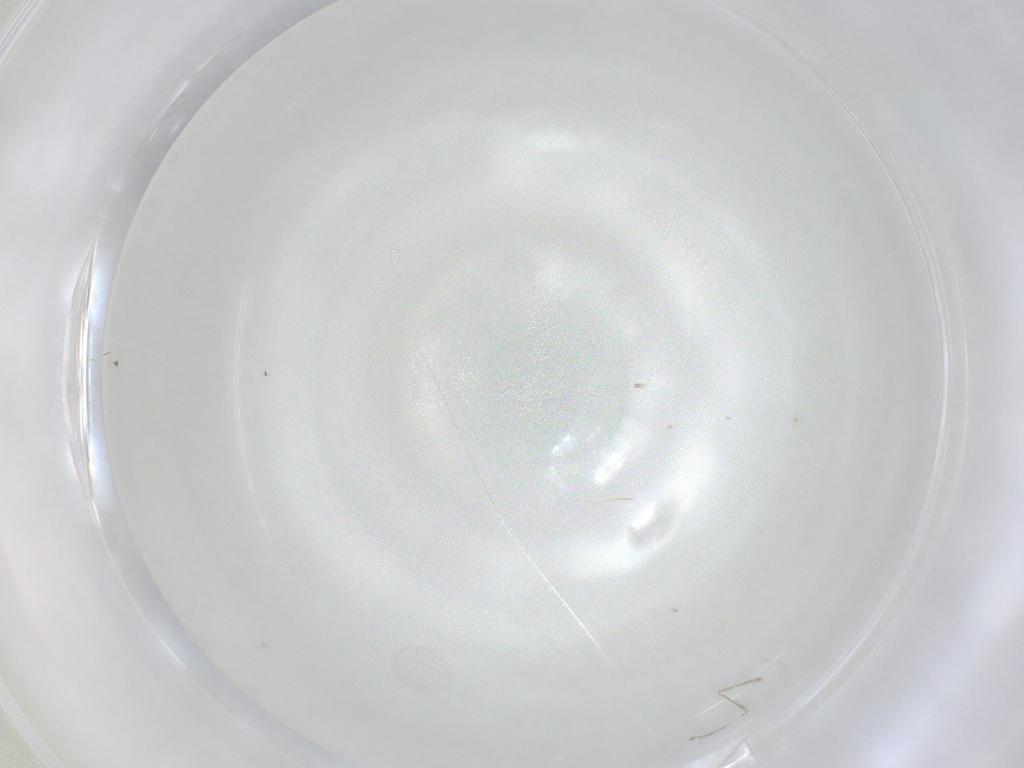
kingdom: Animalia
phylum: Arthropoda
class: Insecta
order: Diptera
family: Cecidomyiidae
